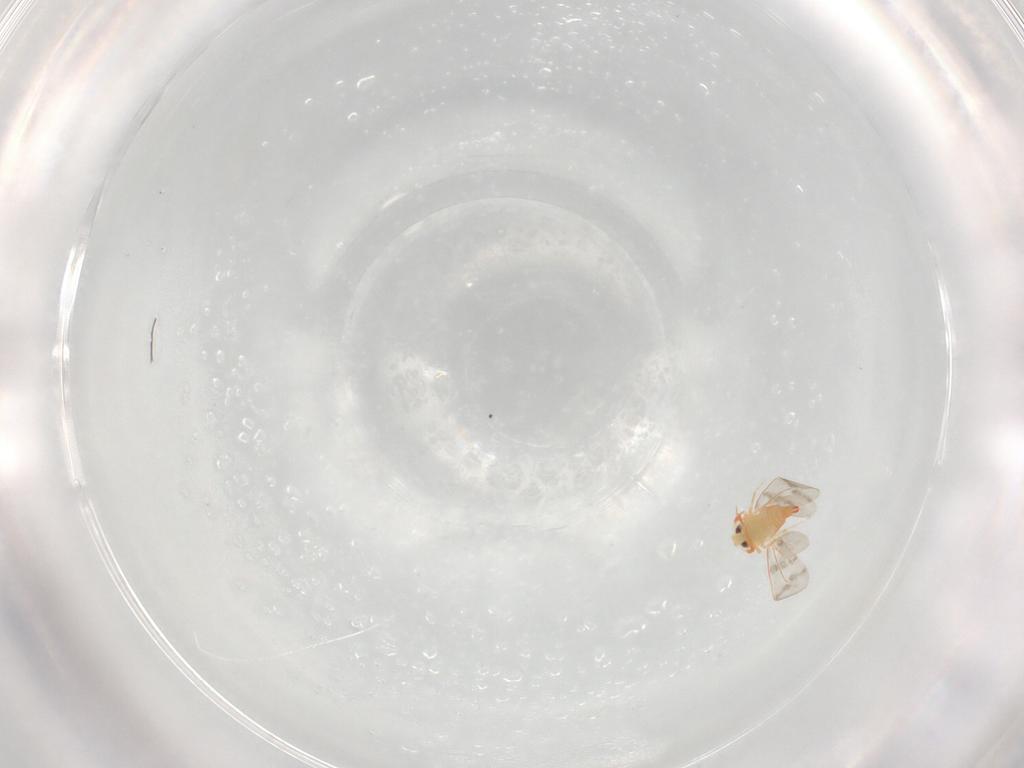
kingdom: Animalia
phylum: Arthropoda
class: Insecta
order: Hemiptera
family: Aleyrodidae
